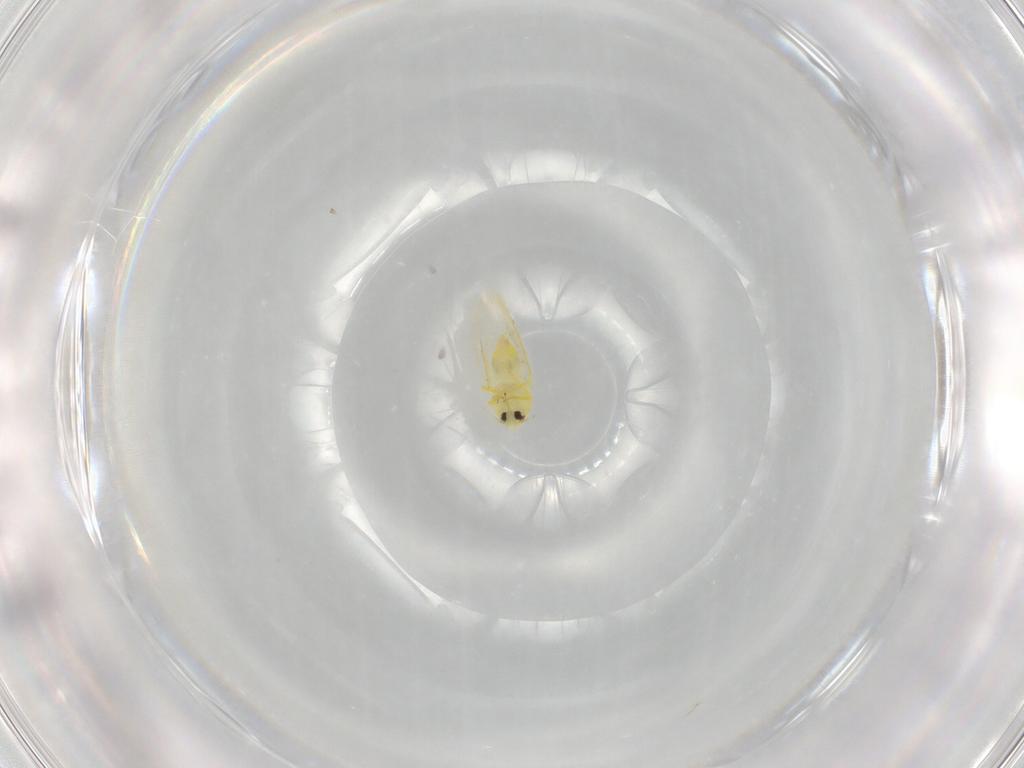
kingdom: Animalia
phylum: Arthropoda
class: Insecta
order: Hemiptera
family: Aleyrodidae
